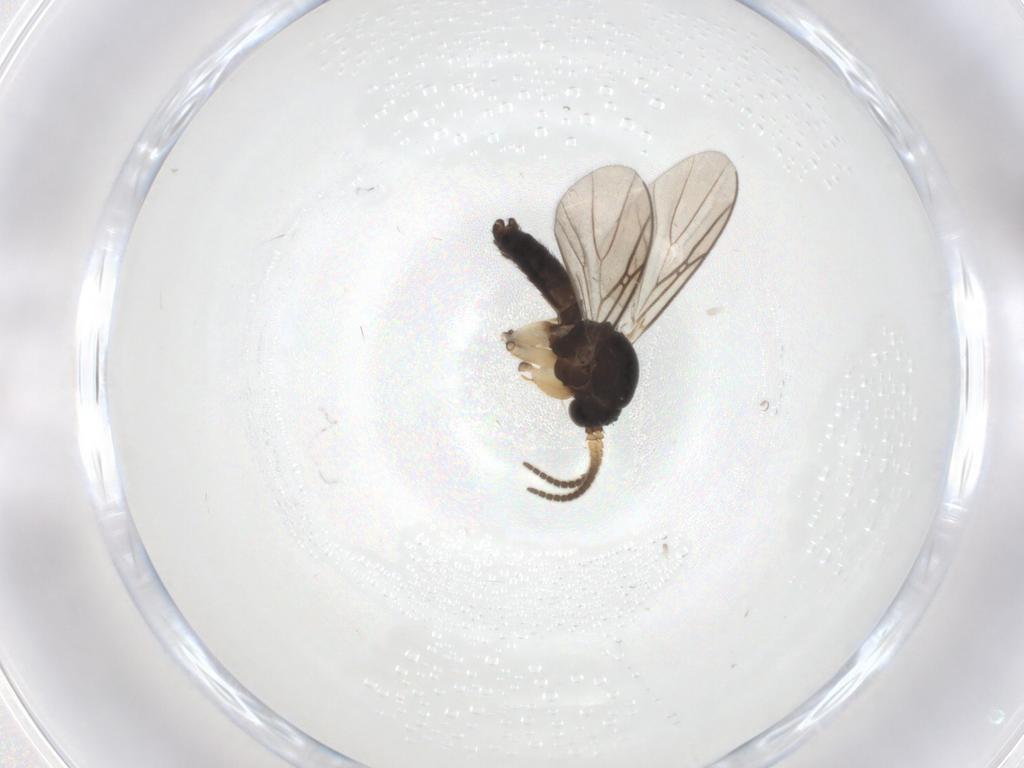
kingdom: Animalia
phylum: Arthropoda
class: Insecta
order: Diptera
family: Mycetophilidae
